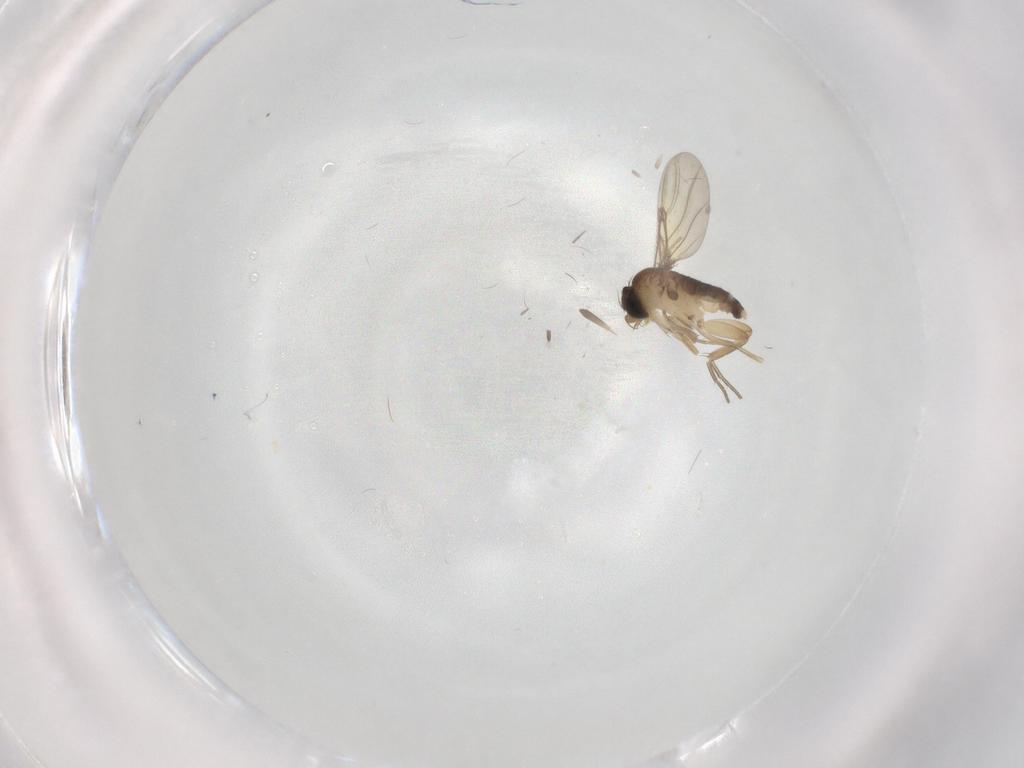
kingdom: Animalia
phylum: Arthropoda
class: Insecta
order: Diptera
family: Phoridae
